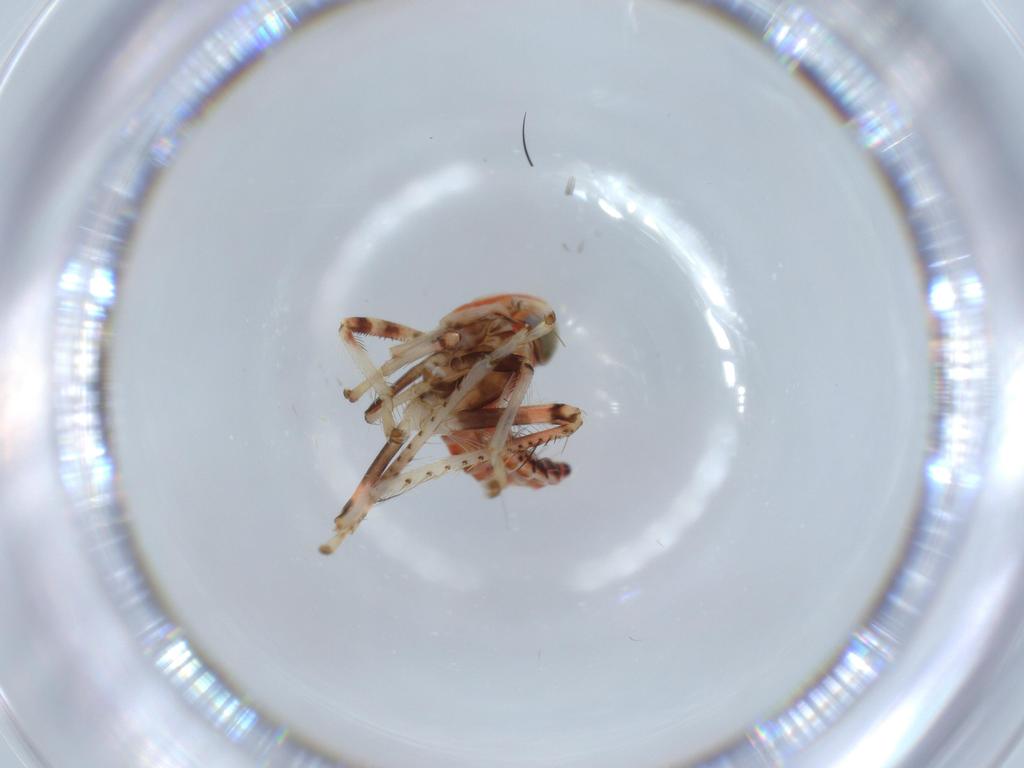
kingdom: Animalia
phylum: Arthropoda
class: Insecta
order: Hemiptera
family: Cicadellidae
